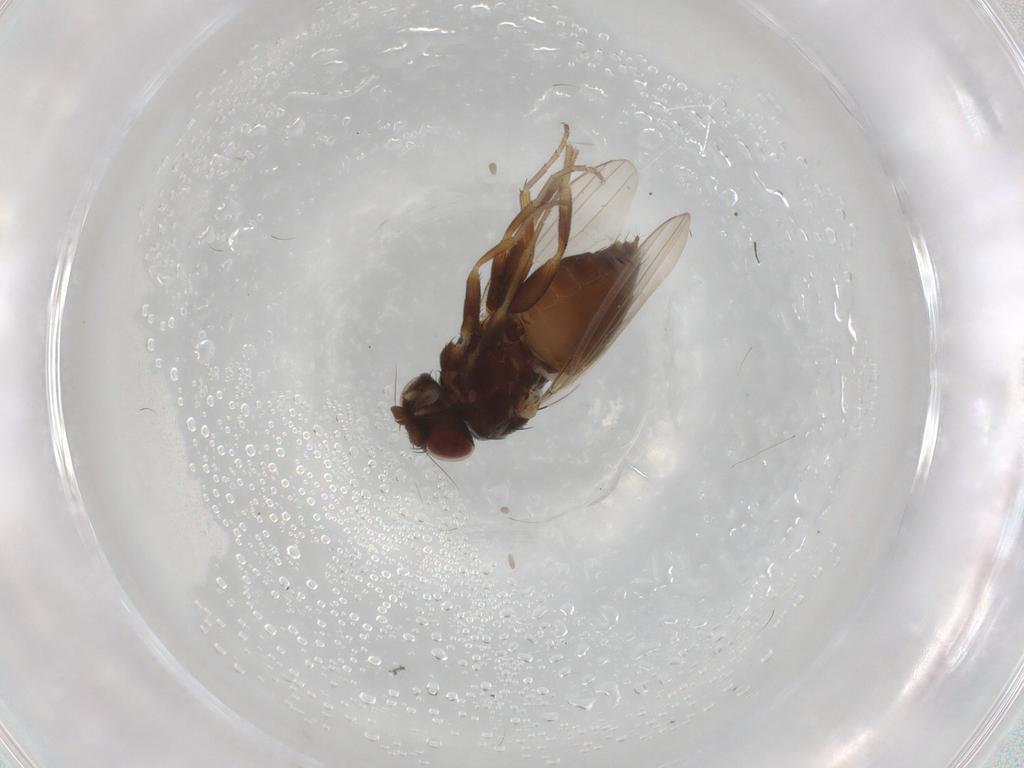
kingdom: Animalia
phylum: Arthropoda
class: Insecta
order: Diptera
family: Milichiidae
